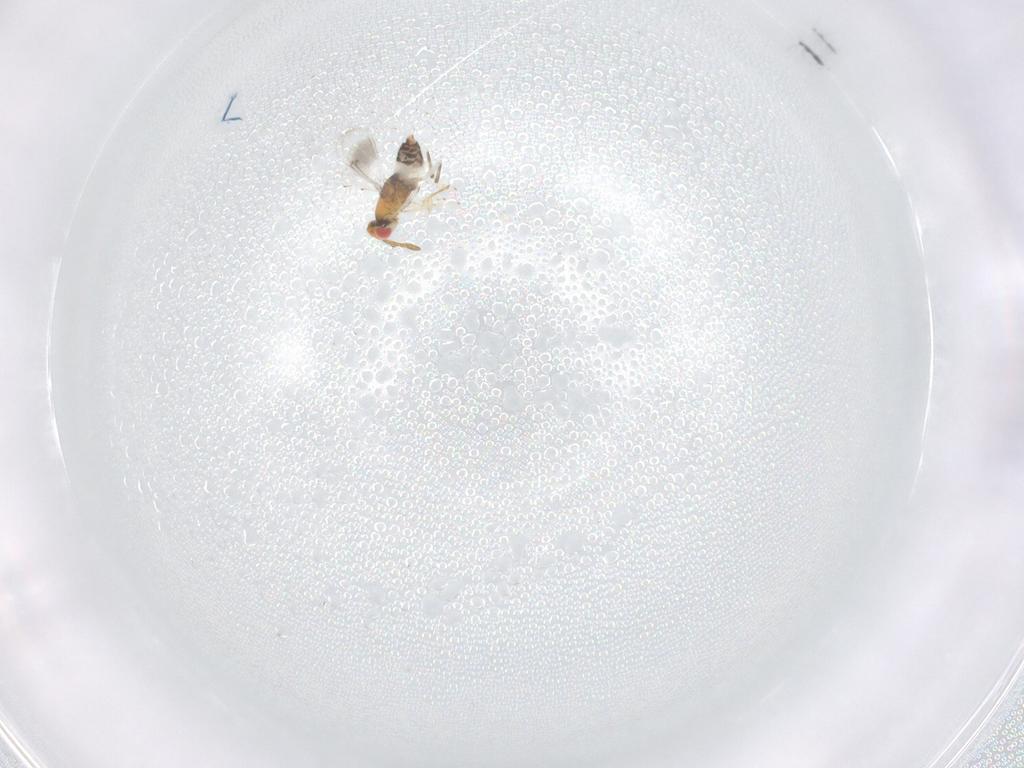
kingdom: Animalia
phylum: Arthropoda
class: Insecta
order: Hymenoptera
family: Aphelinidae
